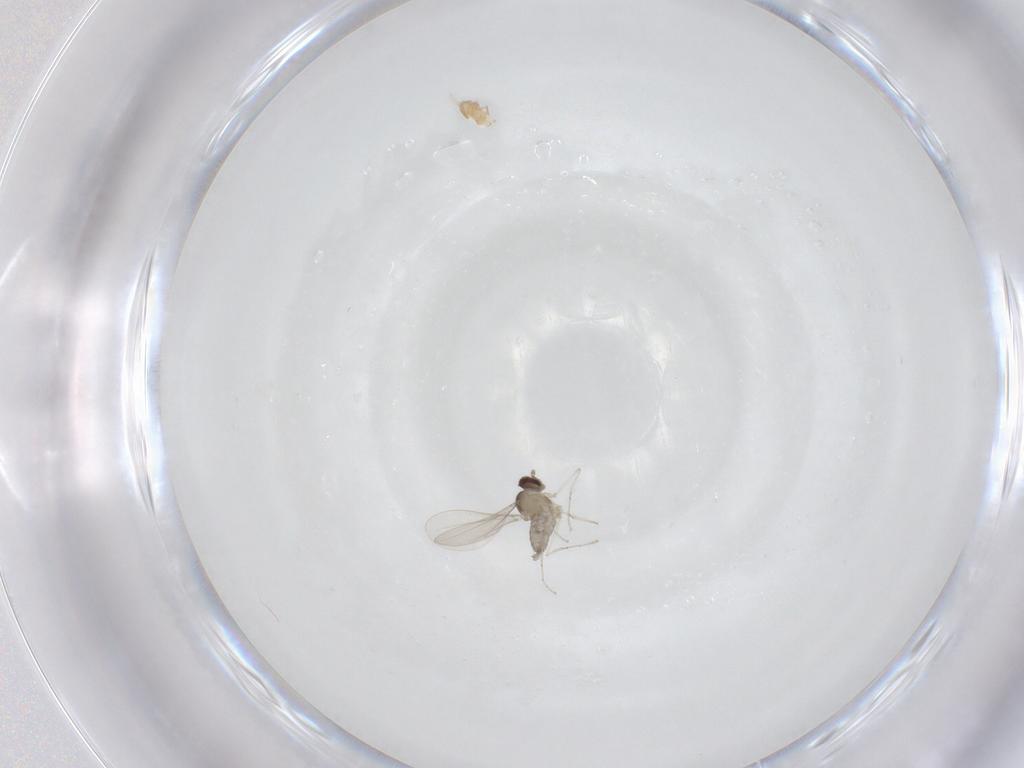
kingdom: Animalia
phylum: Arthropoda
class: Insecta
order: Diptera
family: Cecidomyiidae
